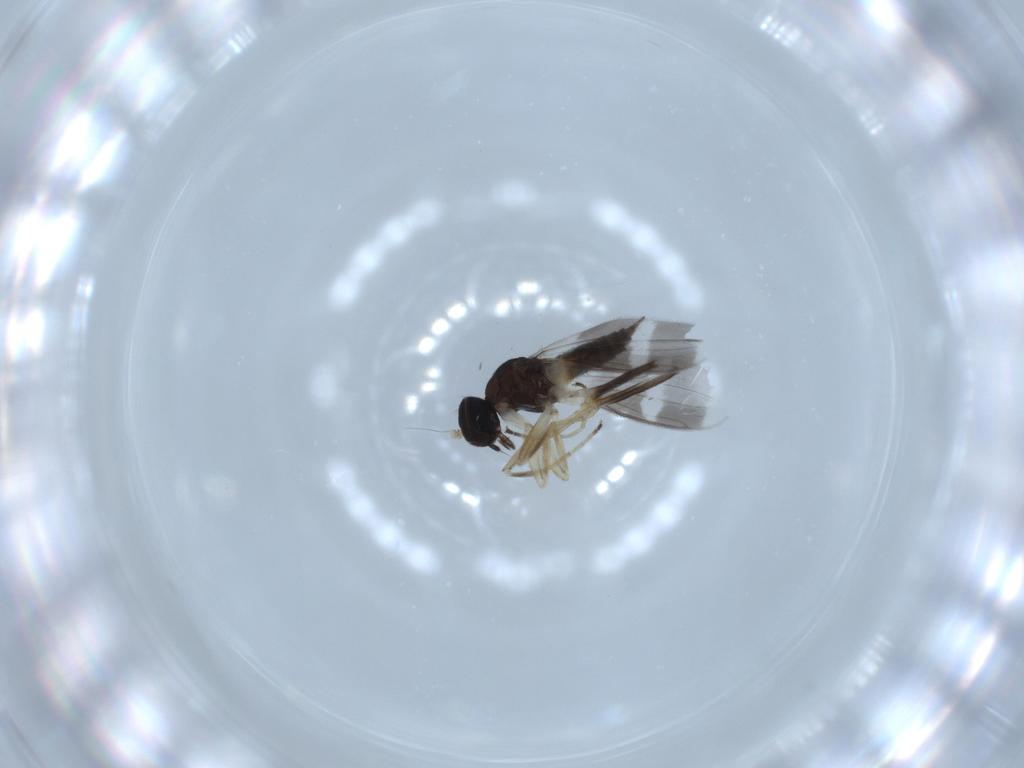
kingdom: Animalia
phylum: Arthropoda
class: Insecta
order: Diptera
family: Hybotidae
